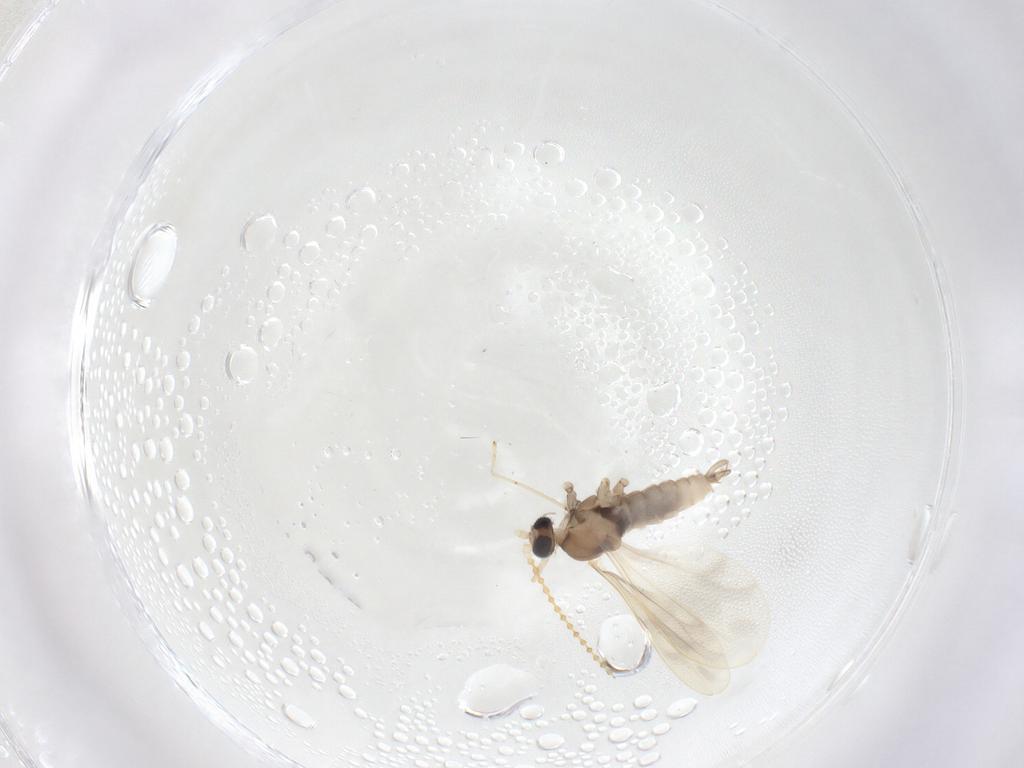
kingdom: Animalia
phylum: Arthropoda
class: Insecta
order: Diptera
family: Cecidomyiidae
